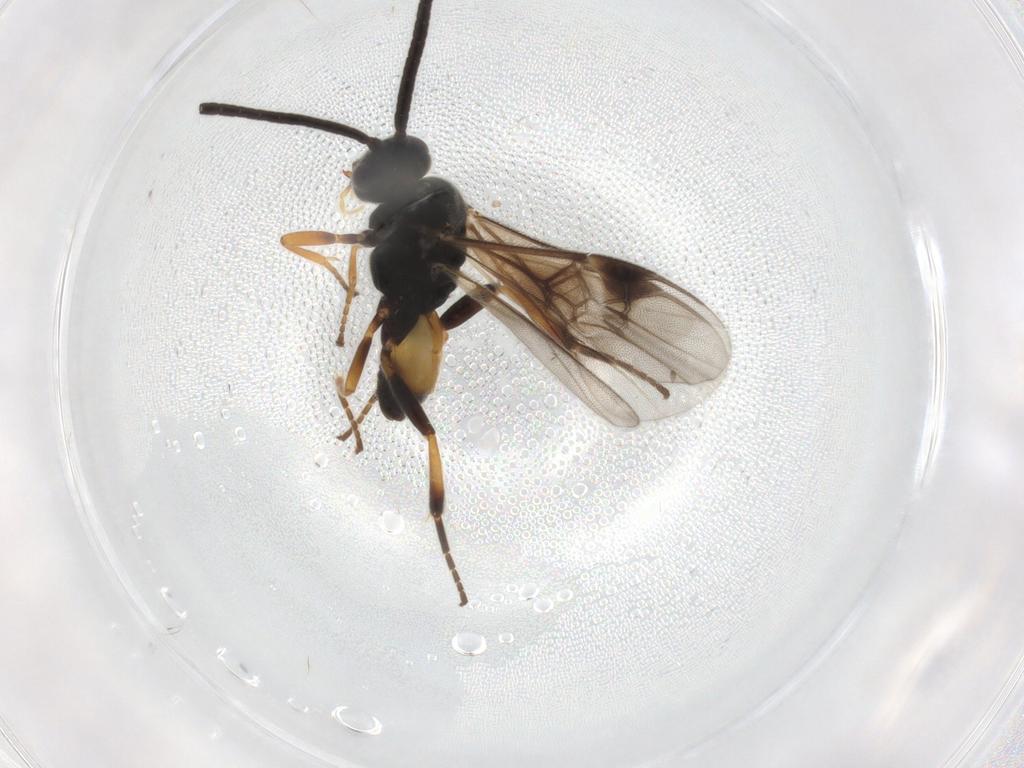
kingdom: Animalia
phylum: Arthropoda
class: Insecta
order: Hymenoptera
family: Braconidae
